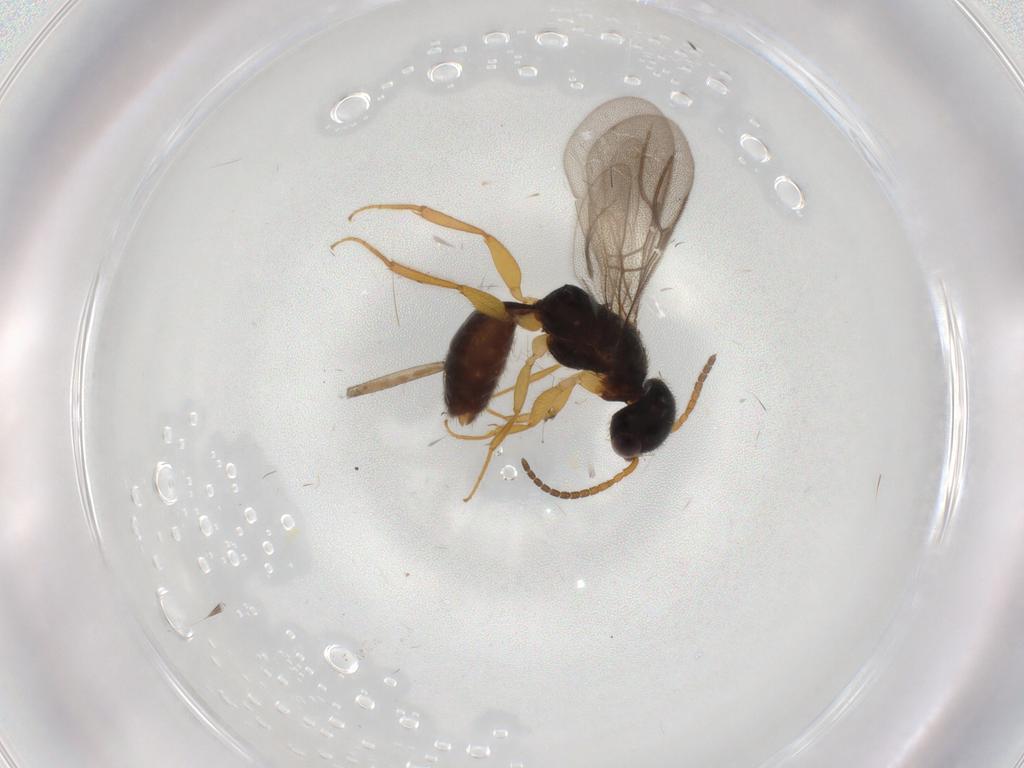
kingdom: Animalia
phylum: Arthropoda
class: Insecta
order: Hymenoptera
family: Bethylidae
